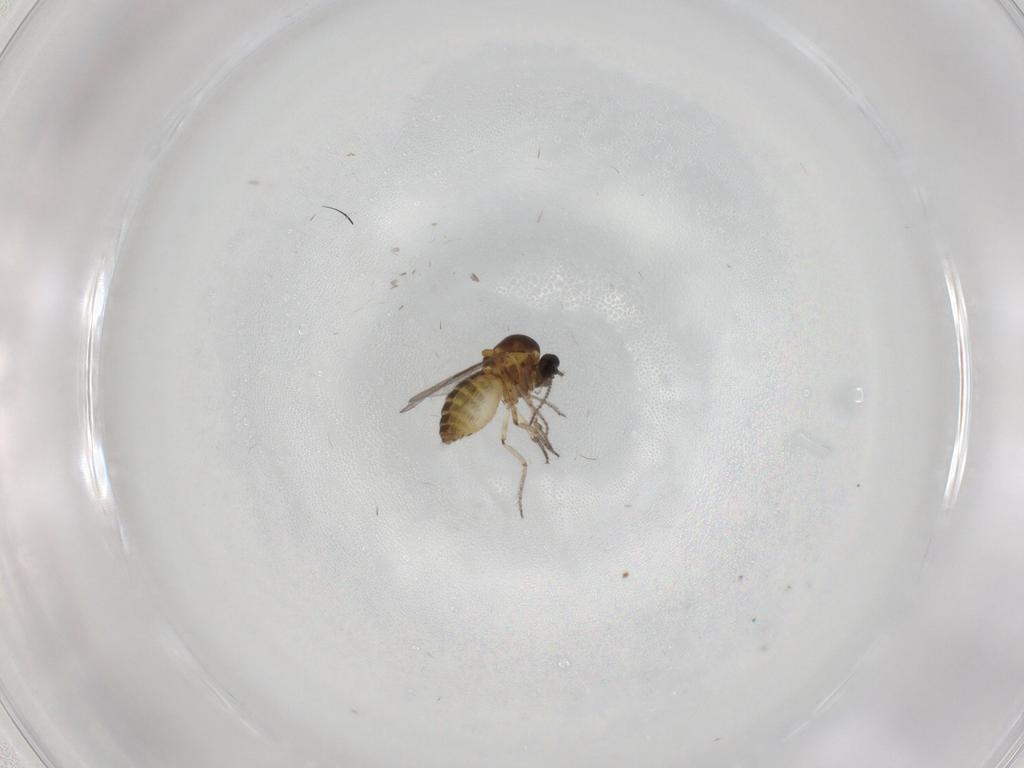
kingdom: Animalia
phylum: Arthropoda
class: Insecta
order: Diptera
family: Ceratopogonidae
